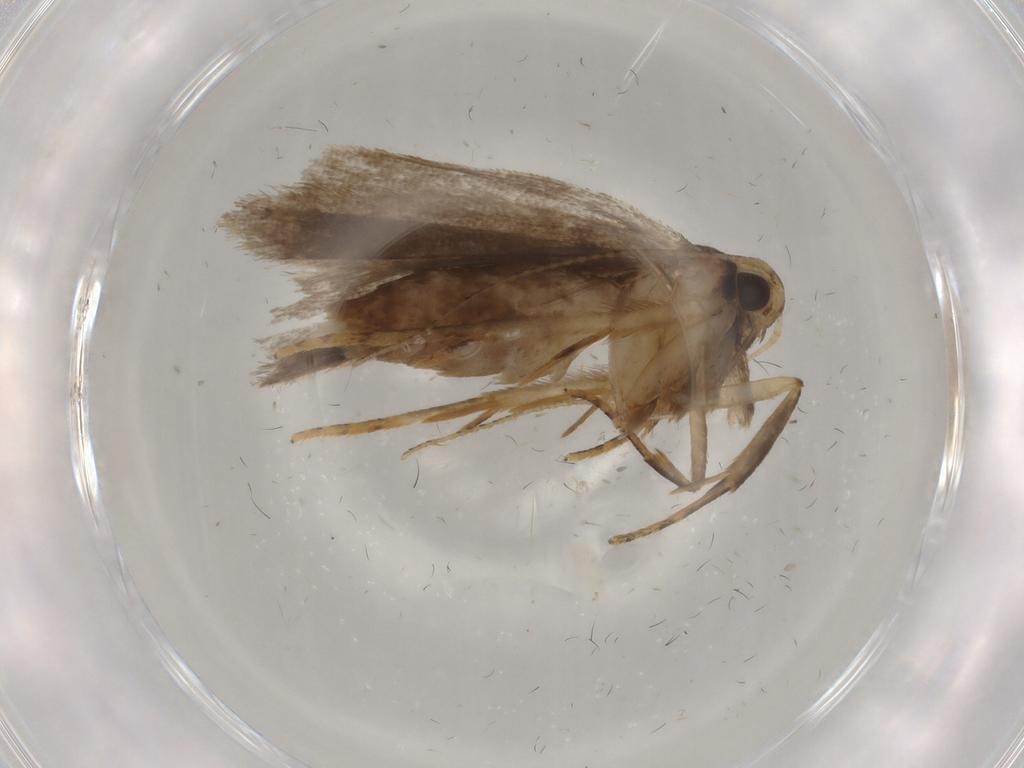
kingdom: Animalia
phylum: Arthropoda
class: Insecta
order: Lepidoptera
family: Gelechiidae
